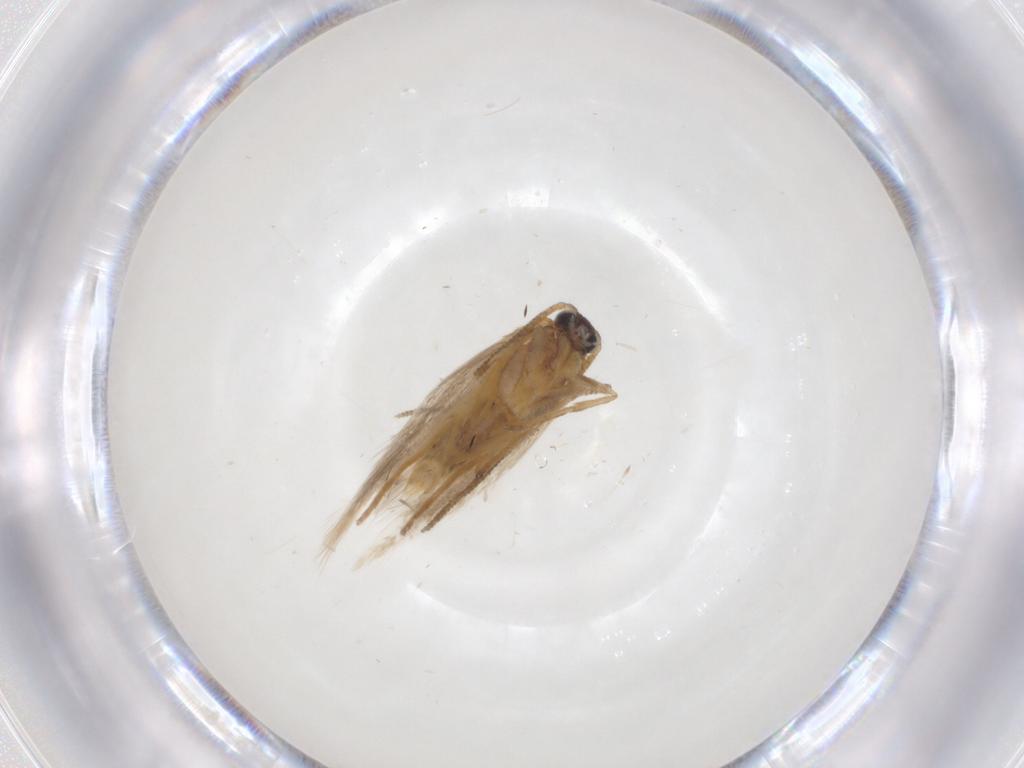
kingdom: Animalia
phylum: Arthropoda
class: Insecta
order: Lepidoptera
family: Tineidae
